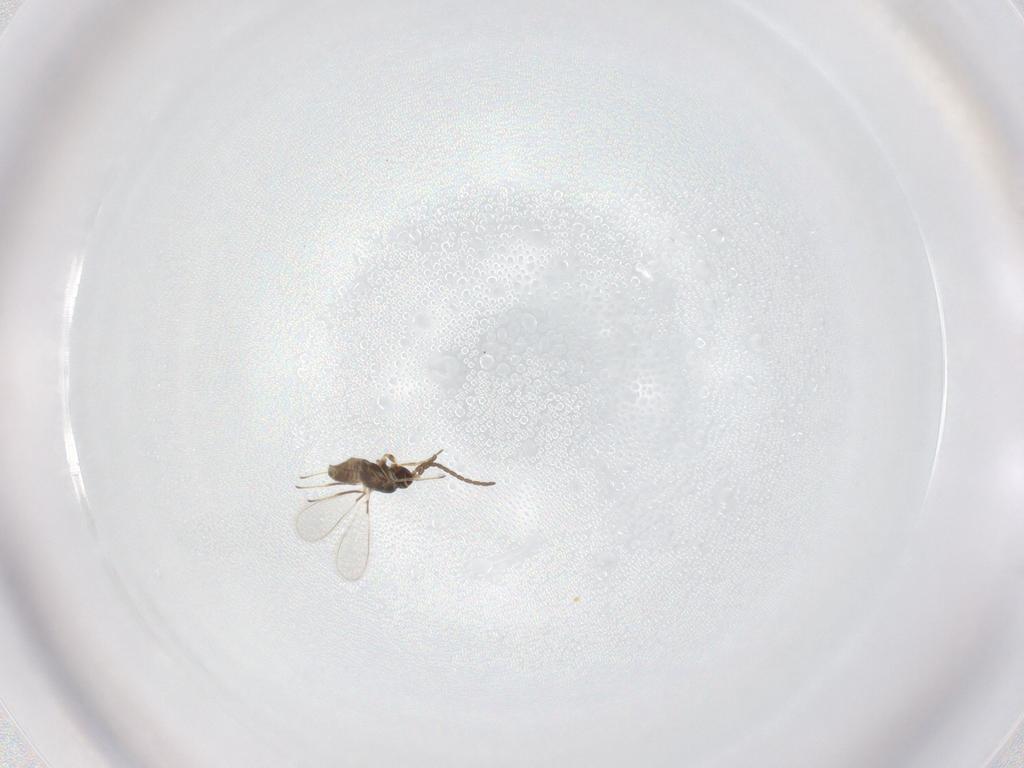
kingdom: Animalia
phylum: Arthropoda
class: Insecta
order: Hymenoptera
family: Mymaridae
